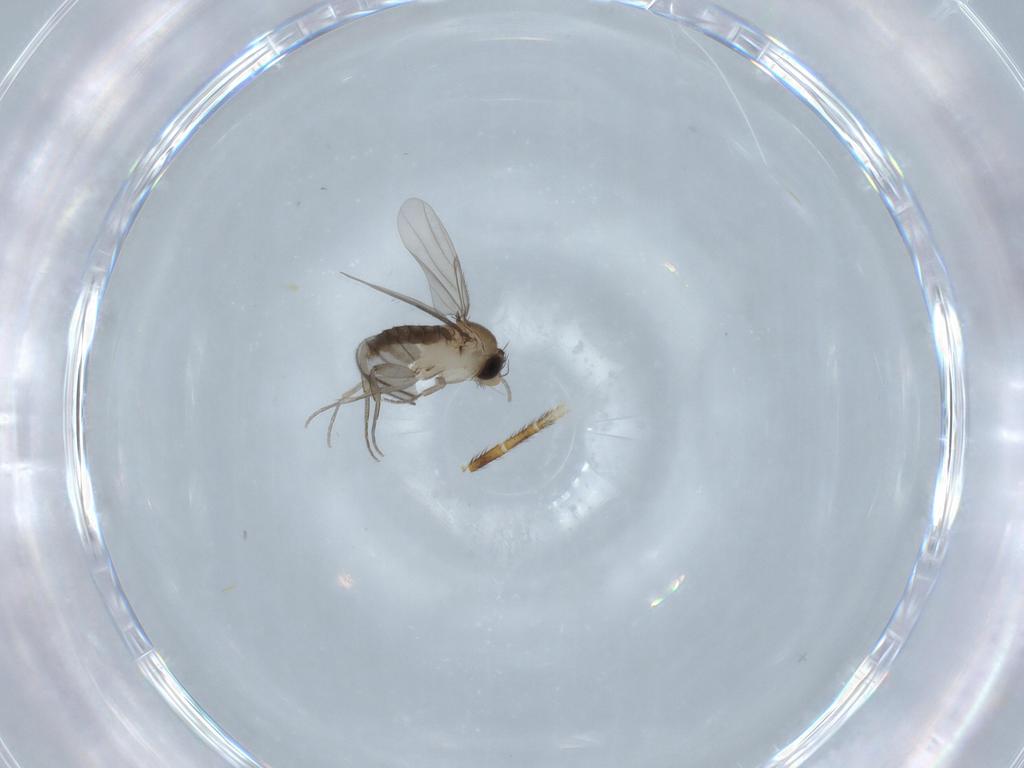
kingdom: Animalia
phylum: Arthropoda
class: Insecta
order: Diptera
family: Phoridae
